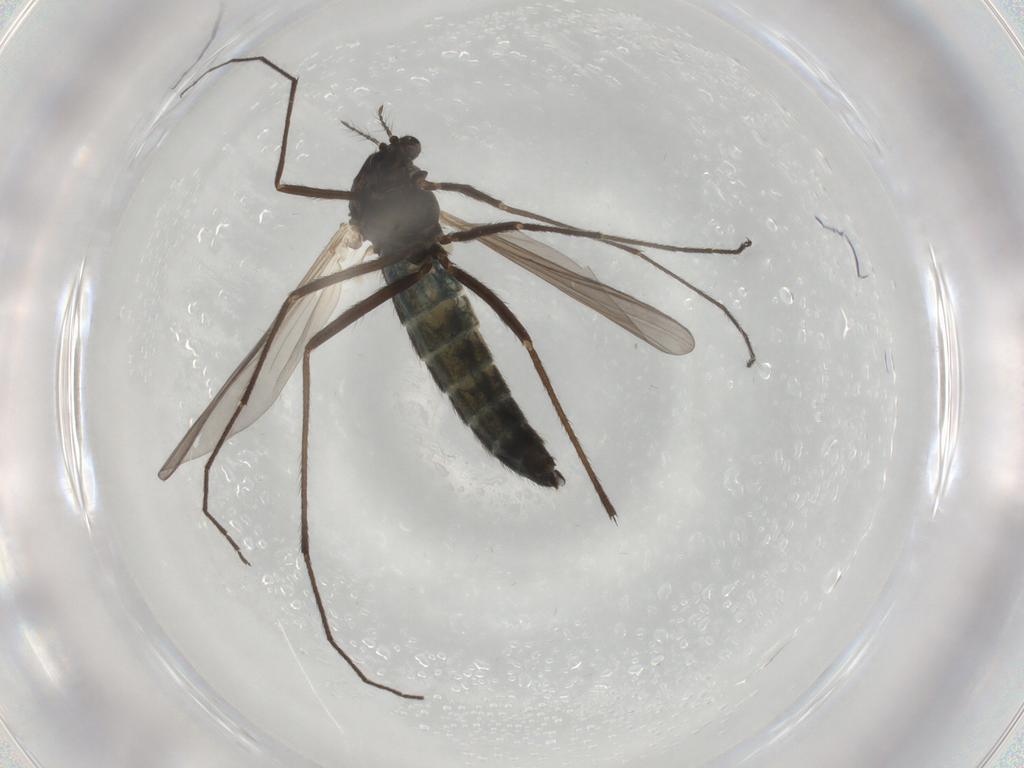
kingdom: Animalia
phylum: Arthropoda
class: Insecta
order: Diptera
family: Chironomidae
